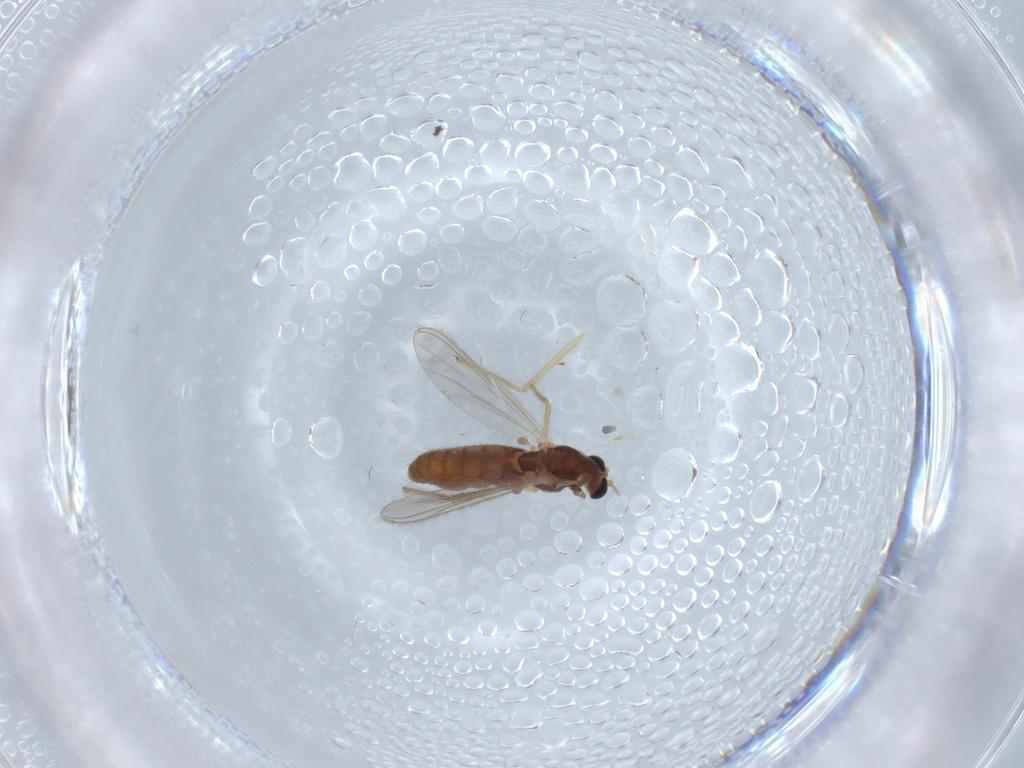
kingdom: Animalia
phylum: Arthropoda
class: Insecta
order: Diptera
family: Chironomidae
